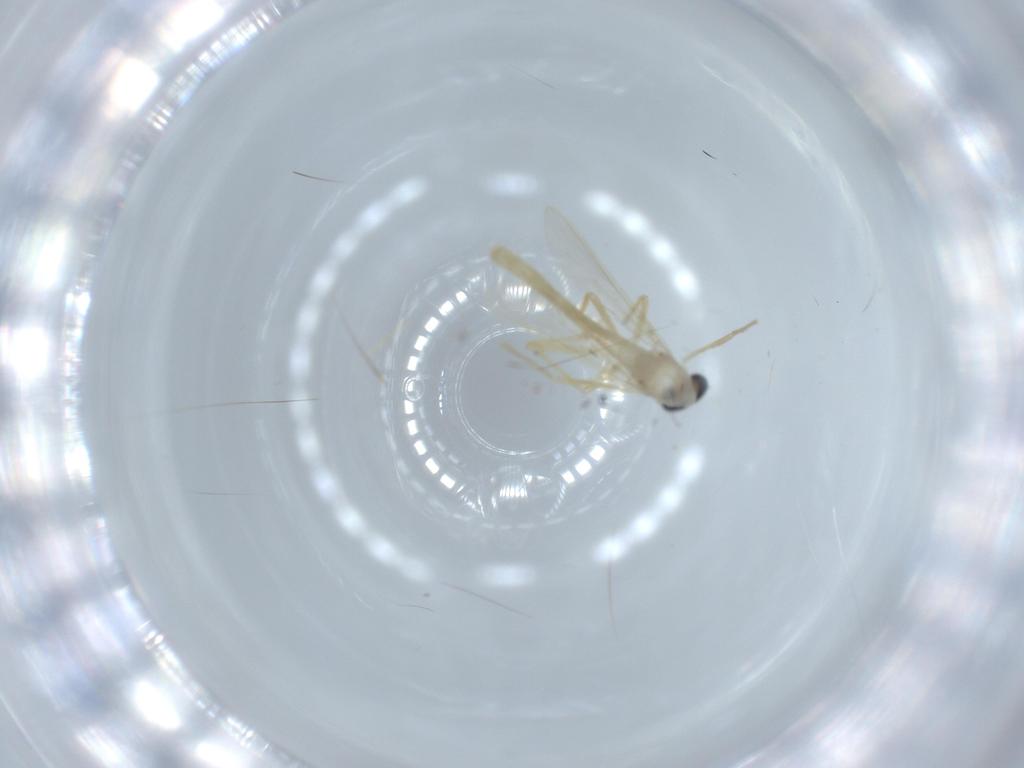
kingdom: Animalia
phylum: Arthropoda
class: Insecta
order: Diptera
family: Chironomidae
